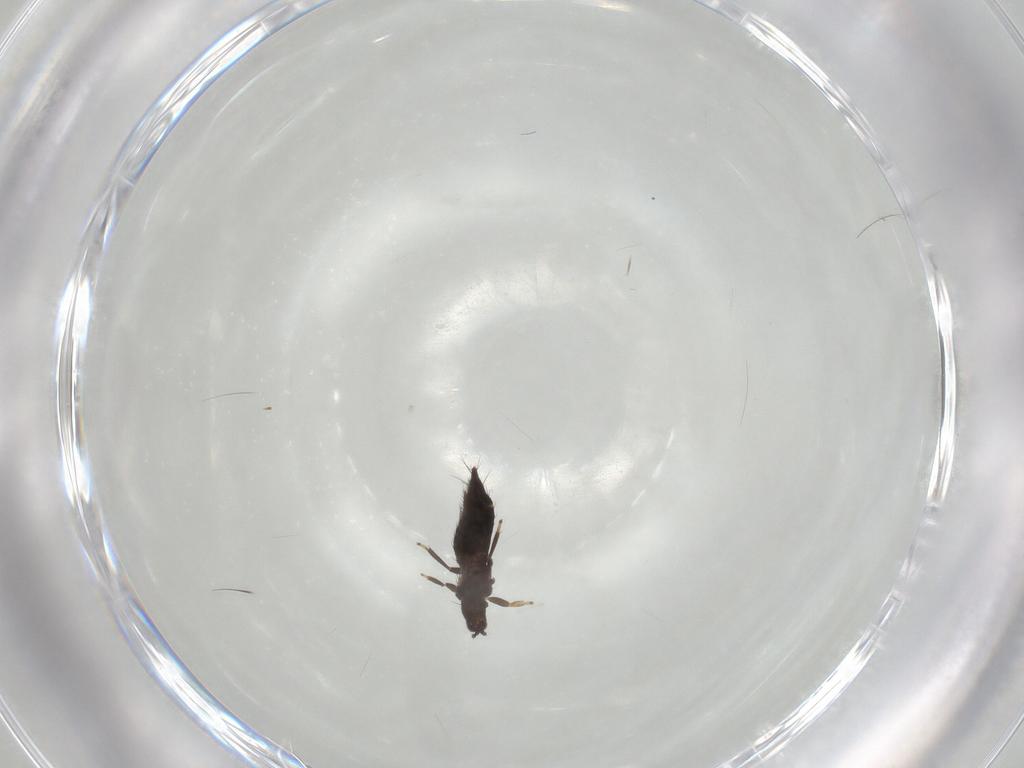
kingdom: Animalia
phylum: Arthropoda
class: Insecta
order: Thysanoptera
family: Thripidae
